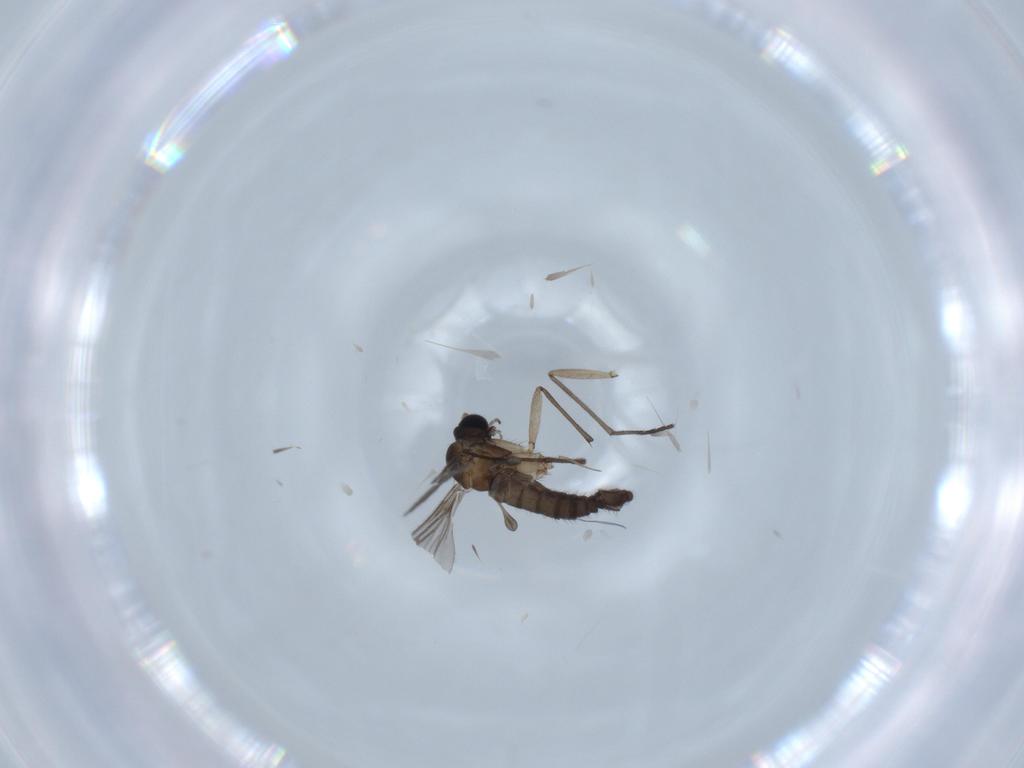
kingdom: Animalia
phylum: Arthropoda
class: Insecta
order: Diptera
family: Sciaridae
